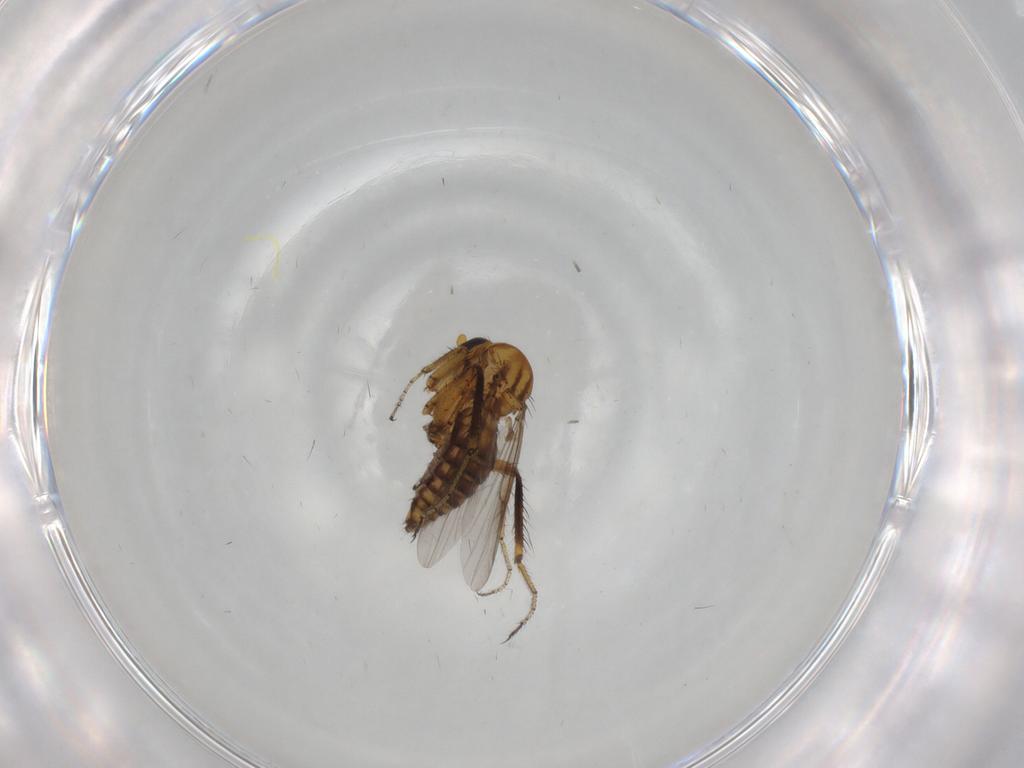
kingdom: Animalia
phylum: Arthropoda
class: Insecta
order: Diptera
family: Ceratopogonidae
